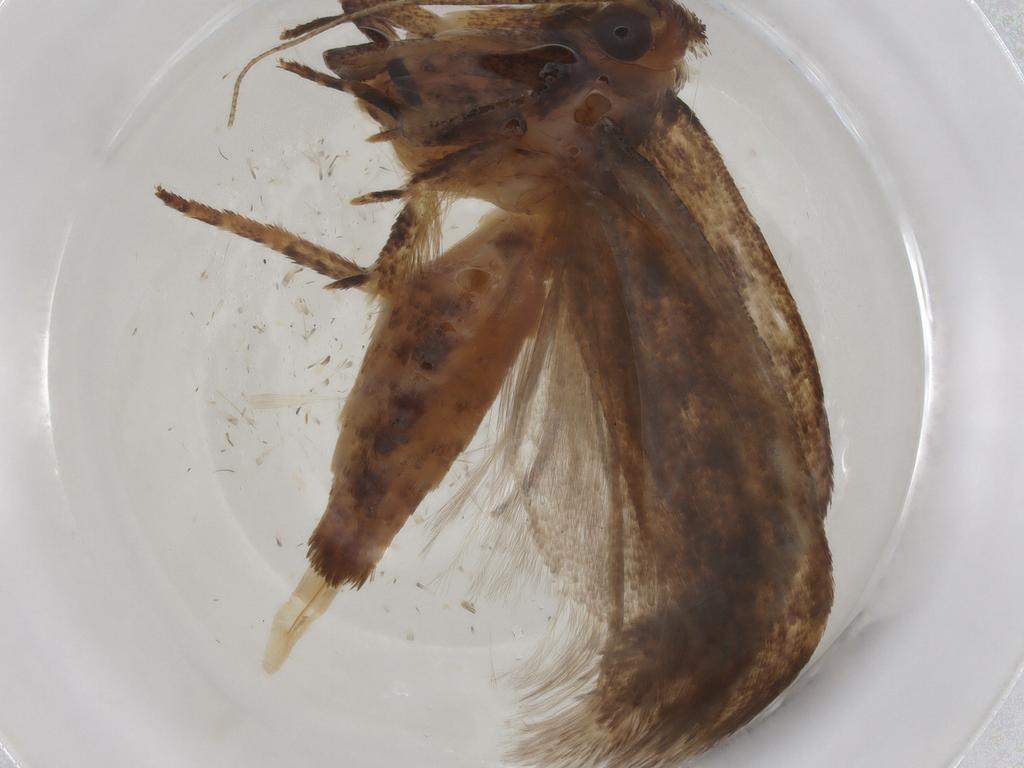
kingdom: Animalia
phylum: Arthropoda
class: Insecta
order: Lepidoptera
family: Gelechiidae
